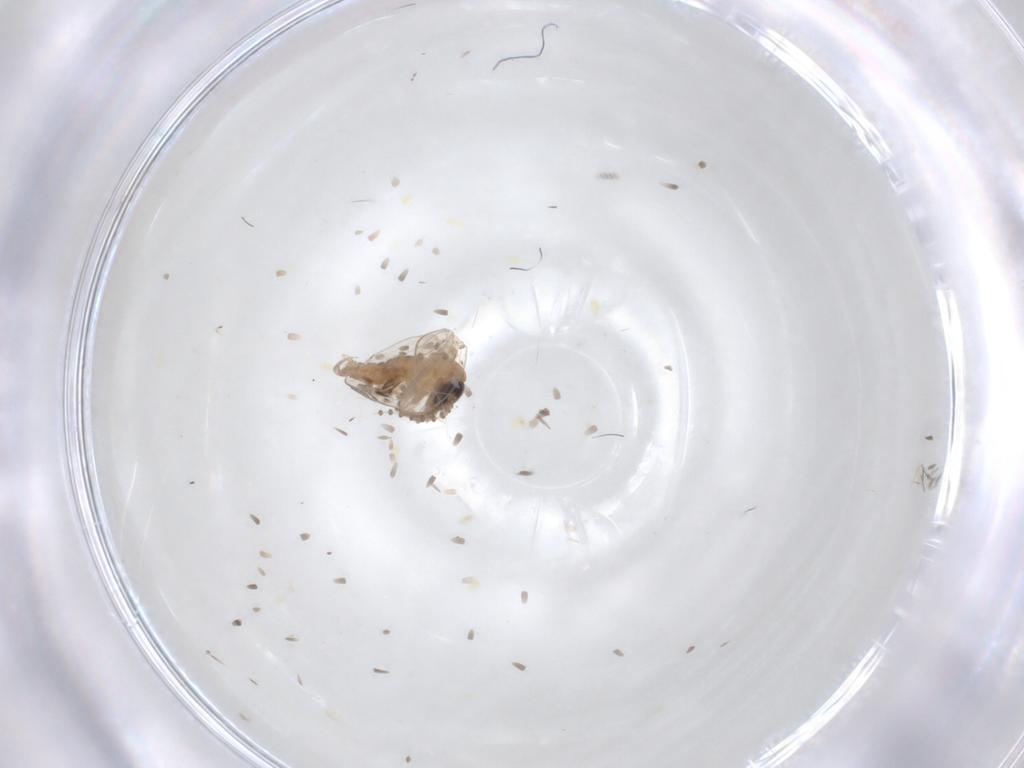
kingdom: Animalia
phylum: Arthropoda
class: Insecta
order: Diptera
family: Psychodidae
